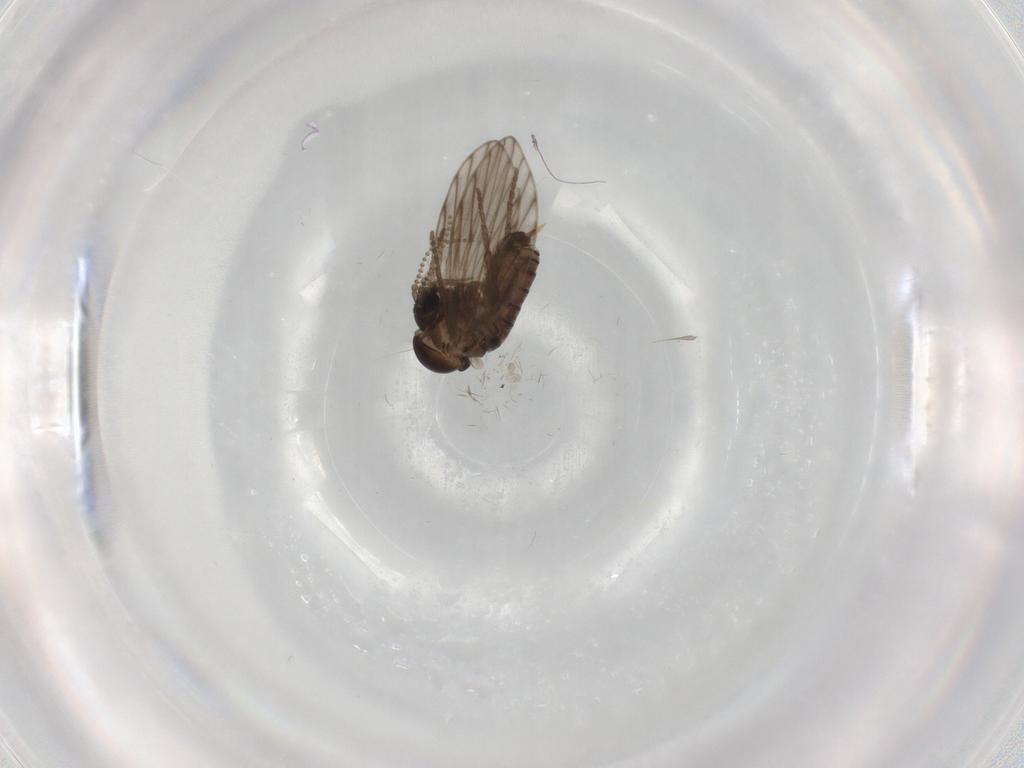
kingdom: Animalia
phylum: Arthropoda
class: Insecta
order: Diptera
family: Psychodidae
